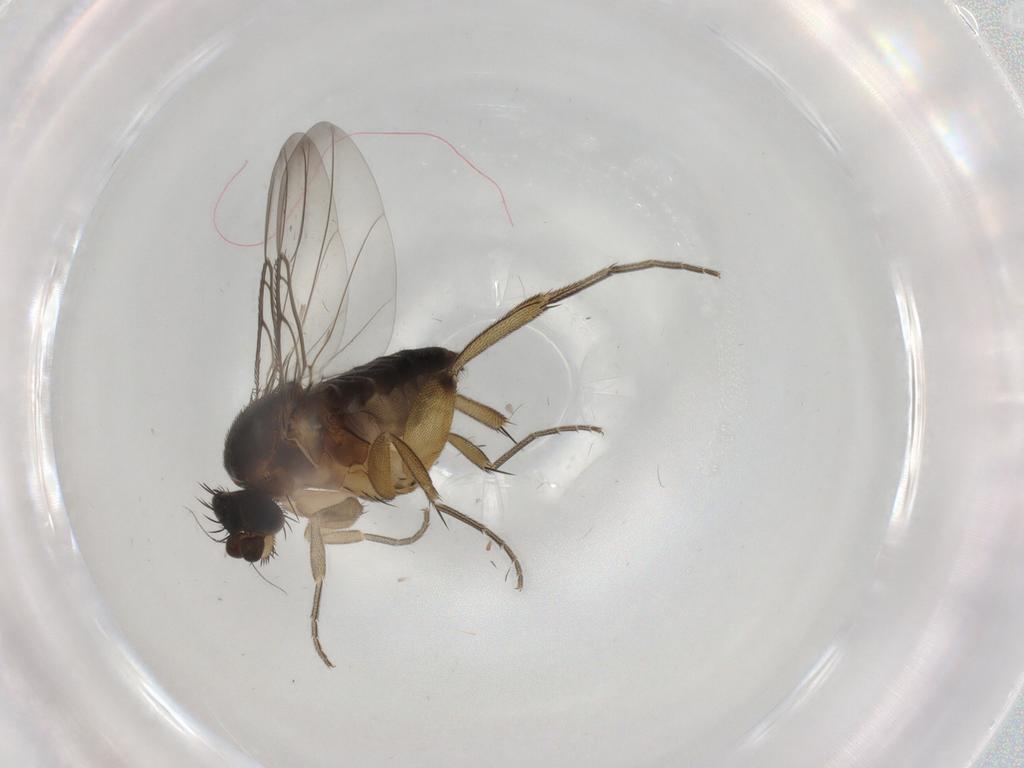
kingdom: Animalia
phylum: Arthropoda
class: Insecta
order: Diptera
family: Phoridae
